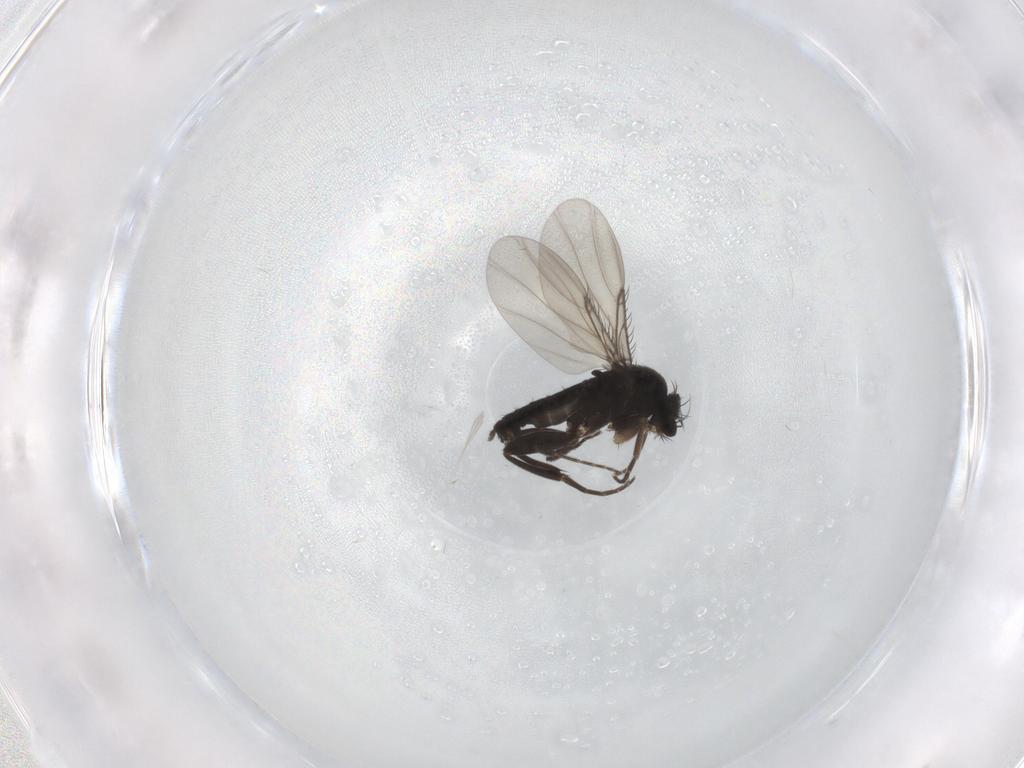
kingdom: Animalia
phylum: Arthropoda
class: Insecta
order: Diptera
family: Phoridae
